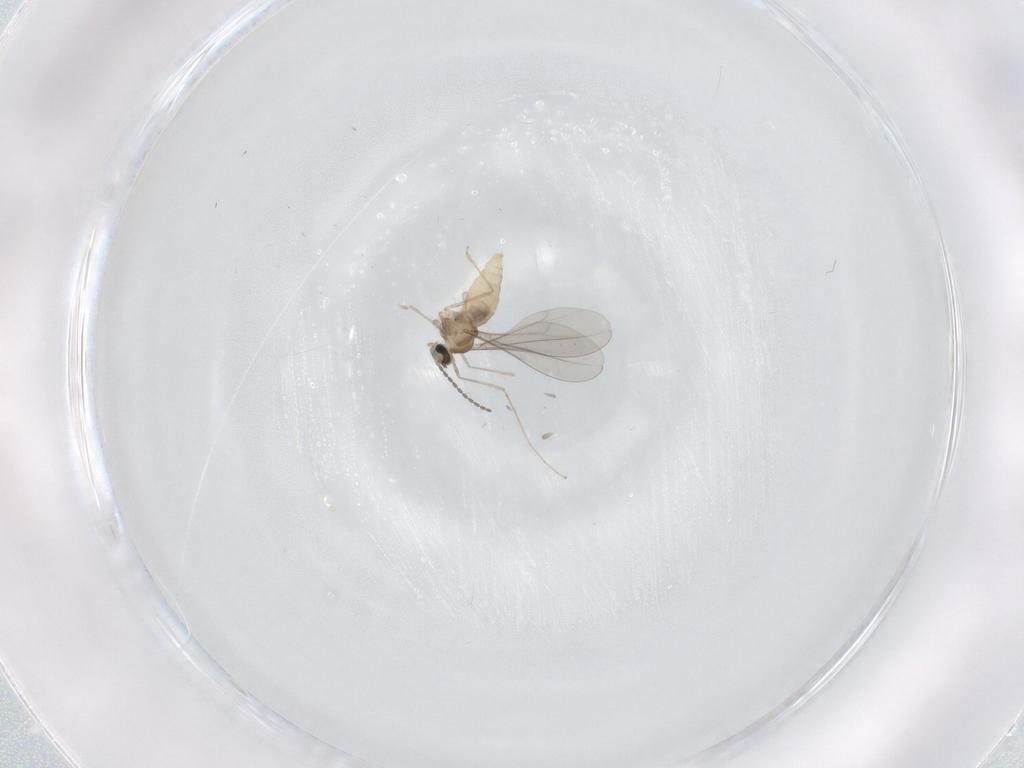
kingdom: Animalia
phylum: Arthropoda
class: Insecta
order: Diptera
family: Cecidomyiidae
